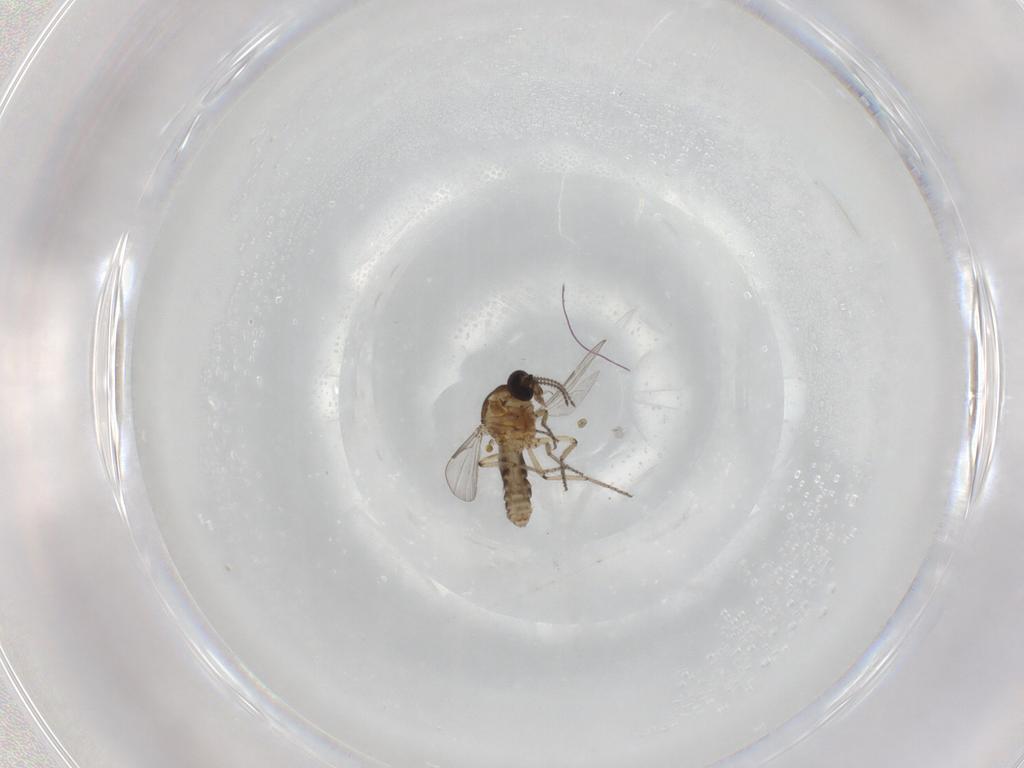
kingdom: Animalia
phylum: Arthropoda
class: Insecta
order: Diptera
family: Ceratopogonidae
